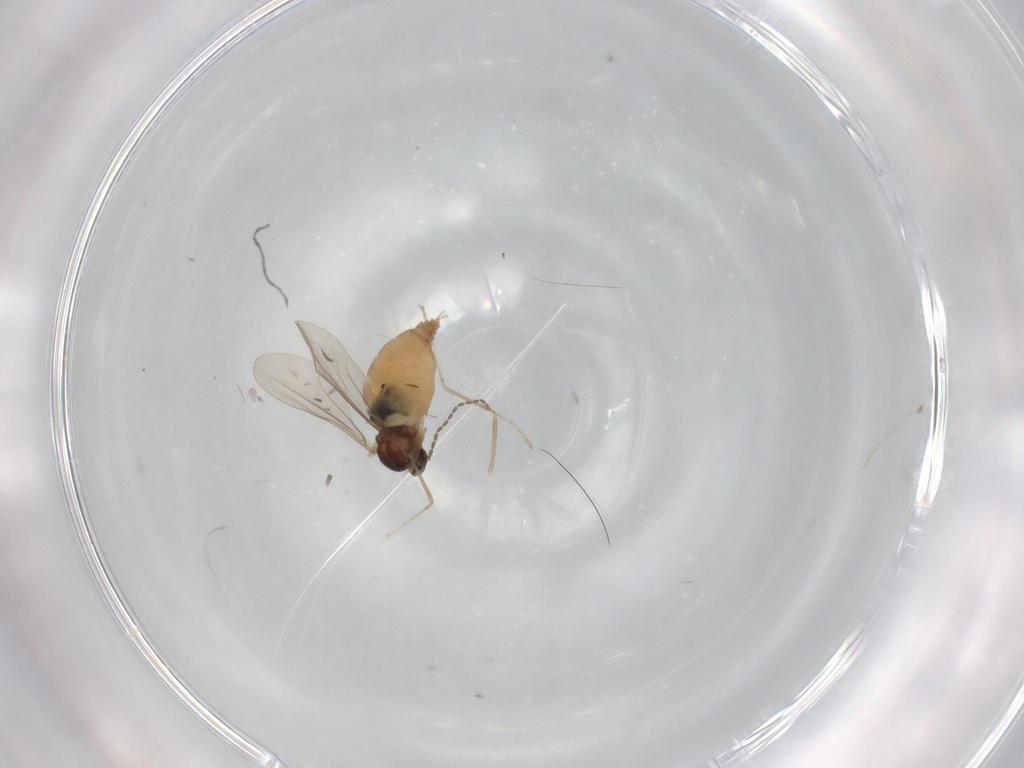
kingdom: Animalia
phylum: Arthropoda
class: Insecta
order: Diptera
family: Cecidomyiidae
